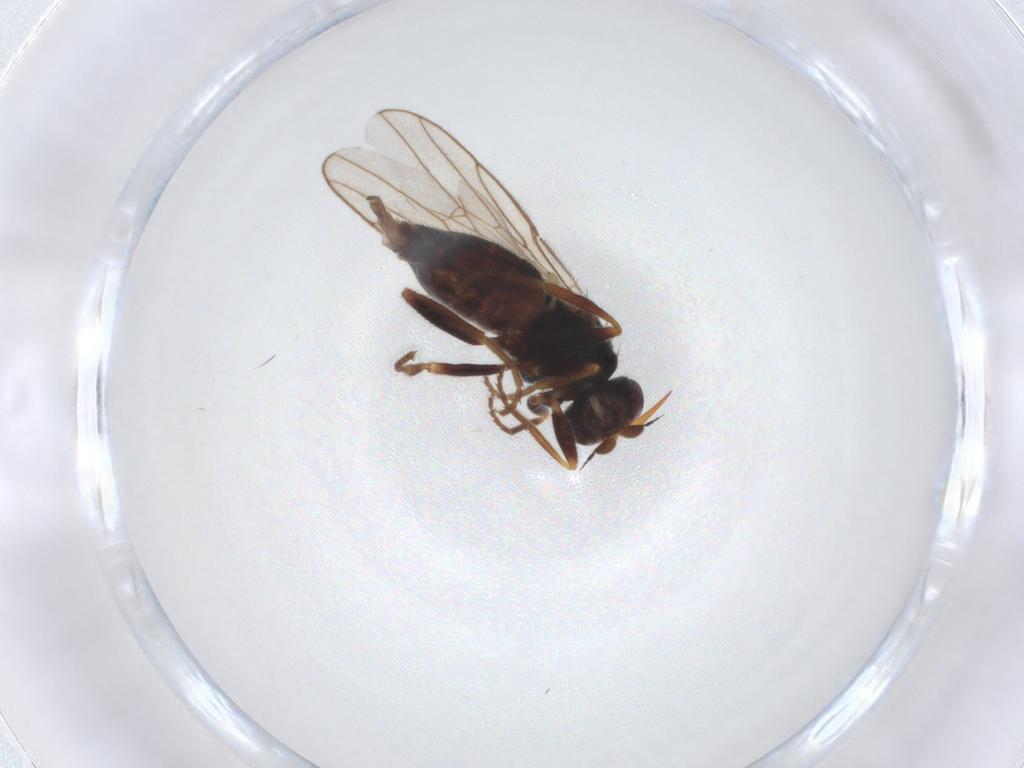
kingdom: Animalia
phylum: Arthropoda
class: Insecta
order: Diptera
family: Chloropidae
